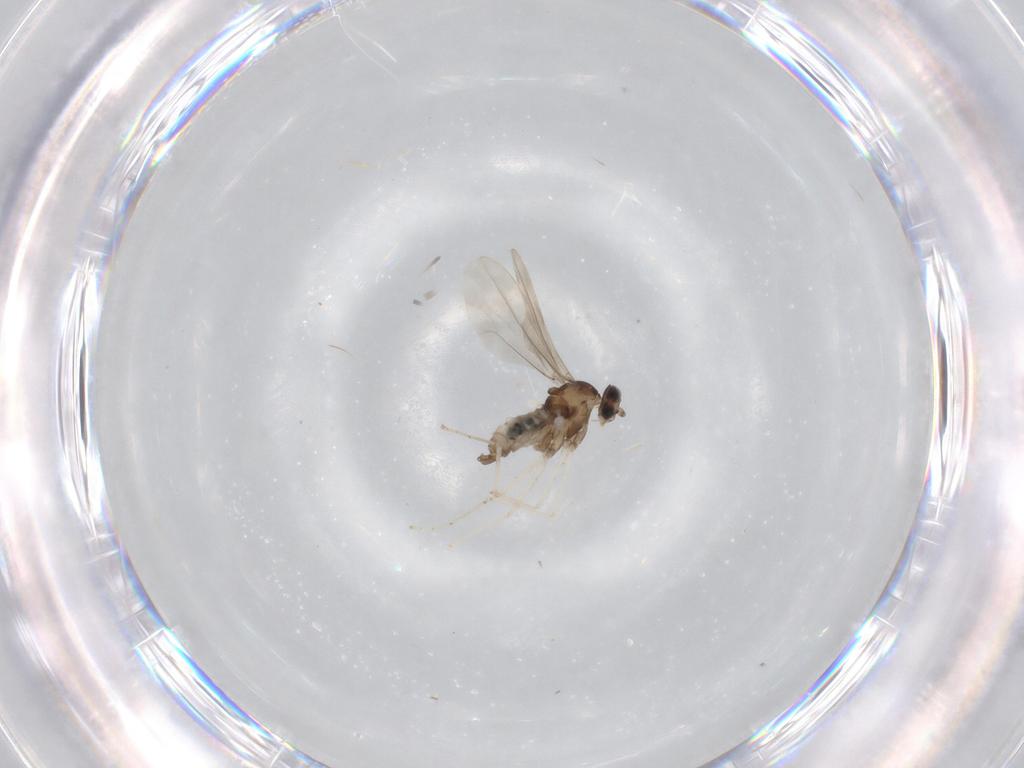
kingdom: Animalia
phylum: Arthropoda
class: Insecta
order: Diptera
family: Cecidomyiidae
